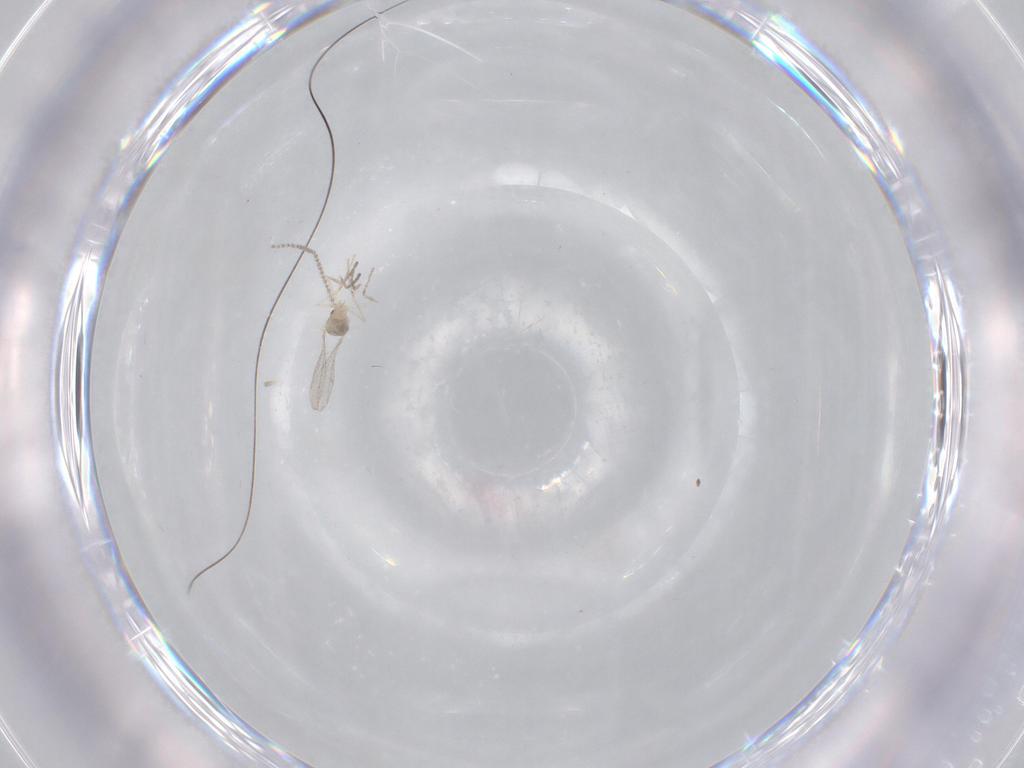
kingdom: Animalia
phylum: Arthropoda
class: Insecta
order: Diptera
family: Cecidomyiidae
